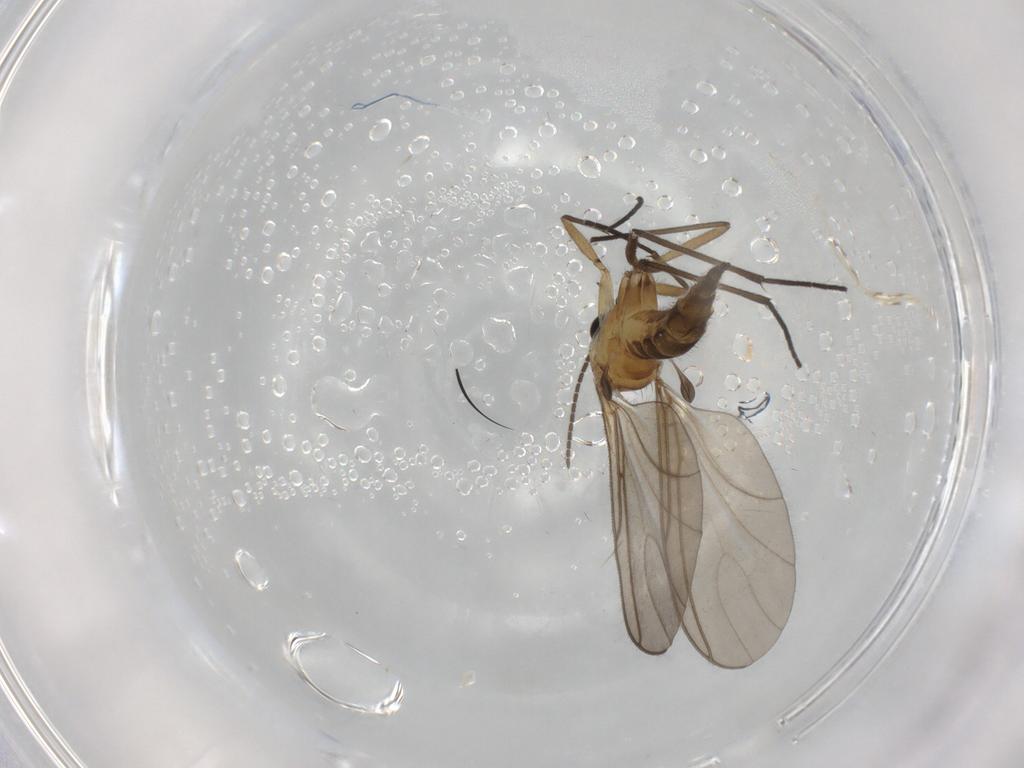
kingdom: Animalia
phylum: Arthropoda
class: Insecta
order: Diptera
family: Sciaridae
